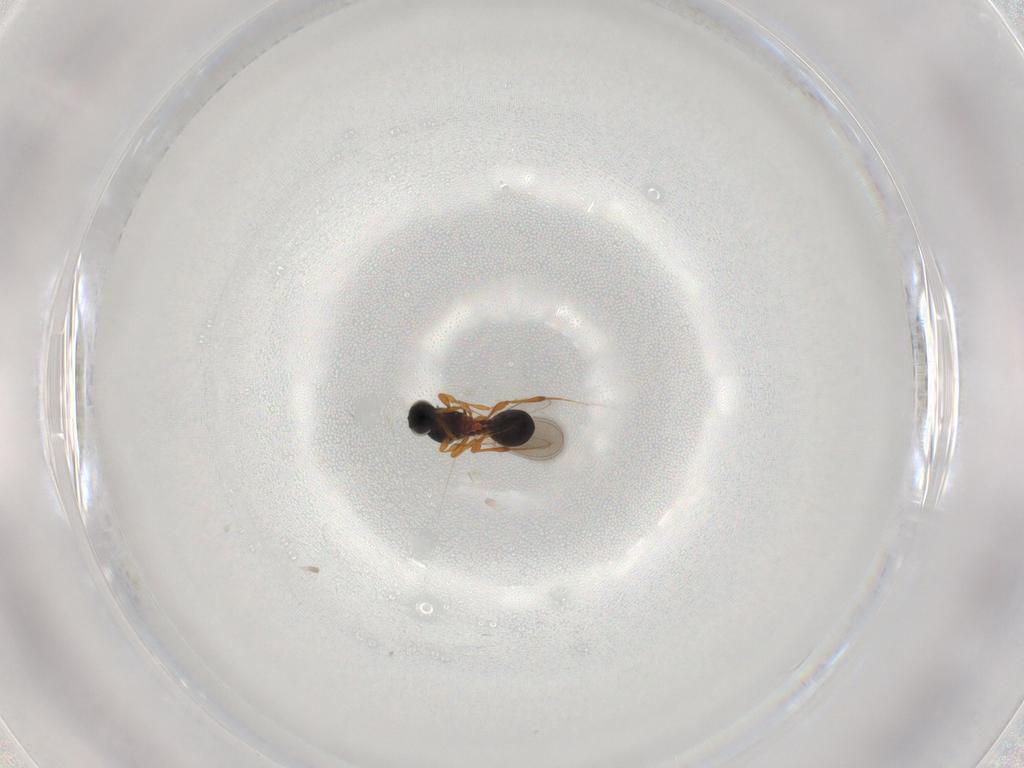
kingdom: Animalia
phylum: Arthropoda
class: Insecta
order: Hymenoptera
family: Platygastridae
